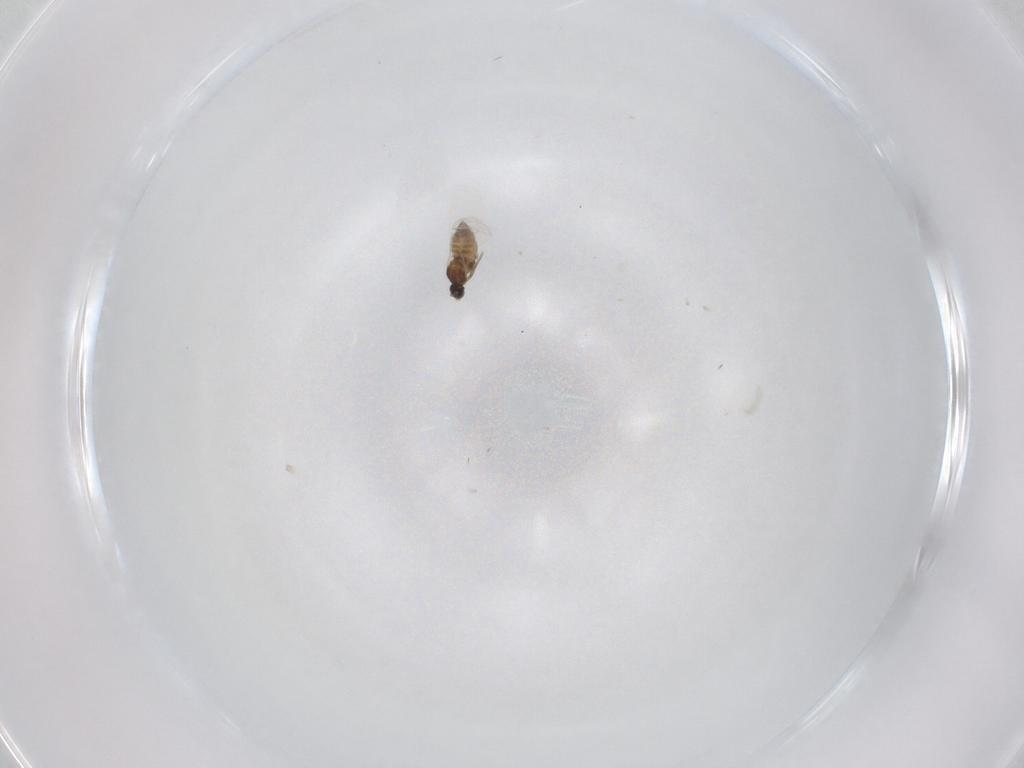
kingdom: Animalia
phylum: Arthropoda
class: Insecta
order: Diptera
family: Cecidomyiidae
